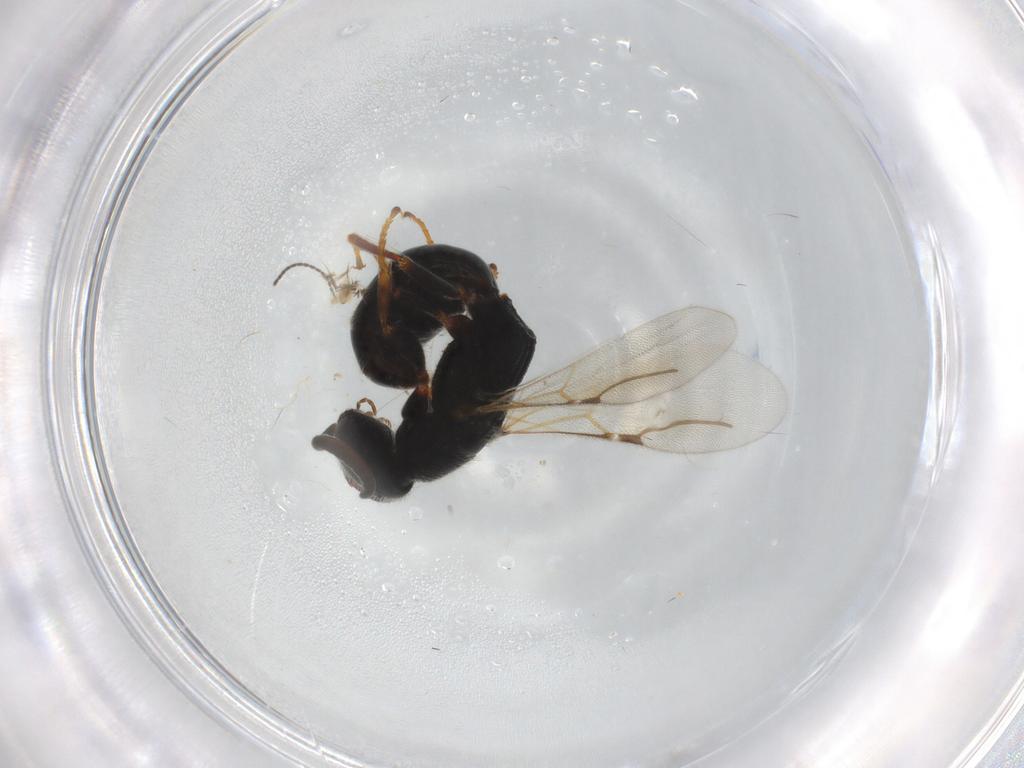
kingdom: Animalia
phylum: Arthropoda
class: Insecta
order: Hymenoptera
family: Bethylidae
